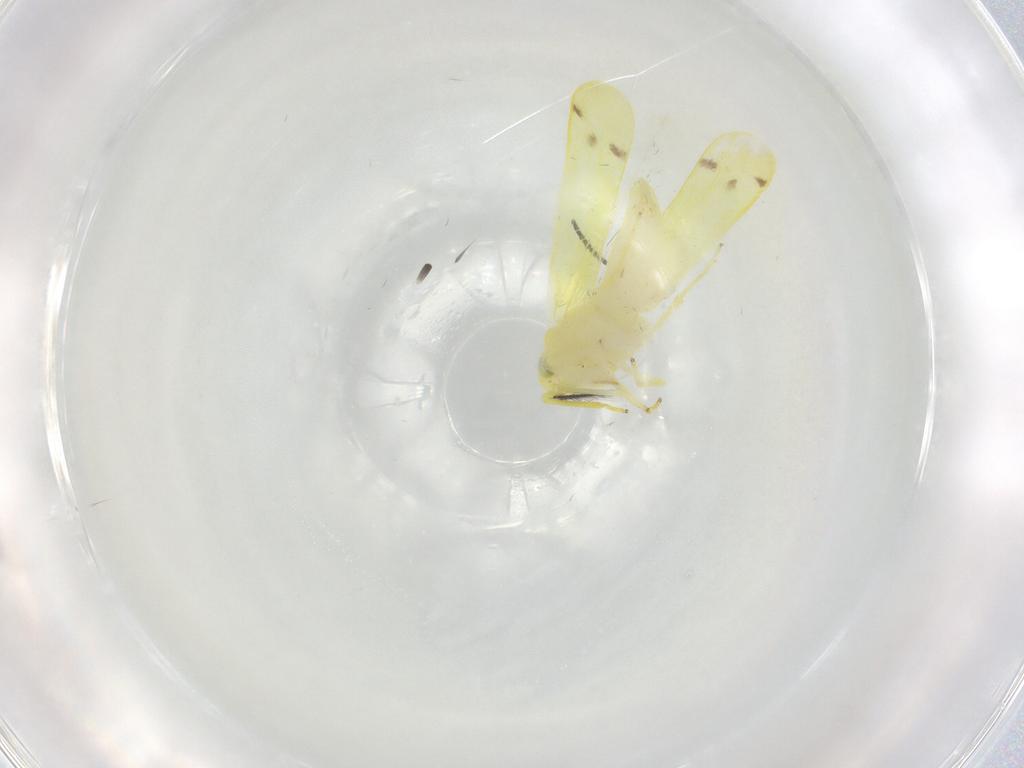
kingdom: Animalia
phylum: Arthropoda
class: Insecta
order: Hemiptera
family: Cicadellidae
